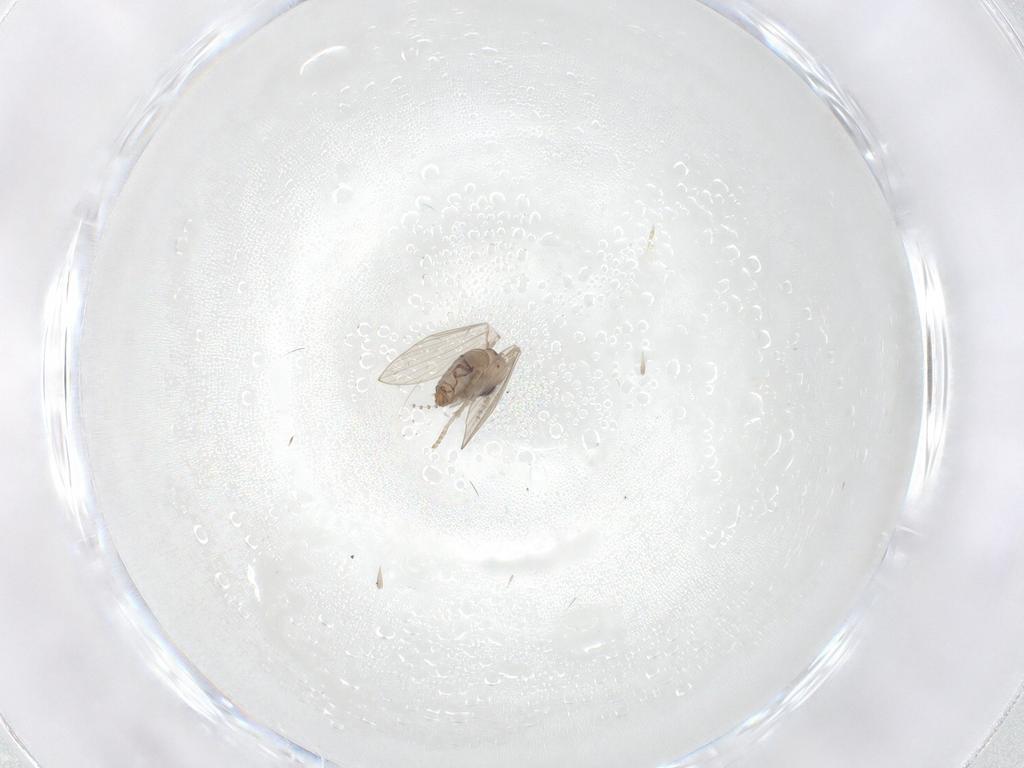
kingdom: Animalia
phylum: Arthropoda
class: Insecta
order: Diptera
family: Psychodidae
